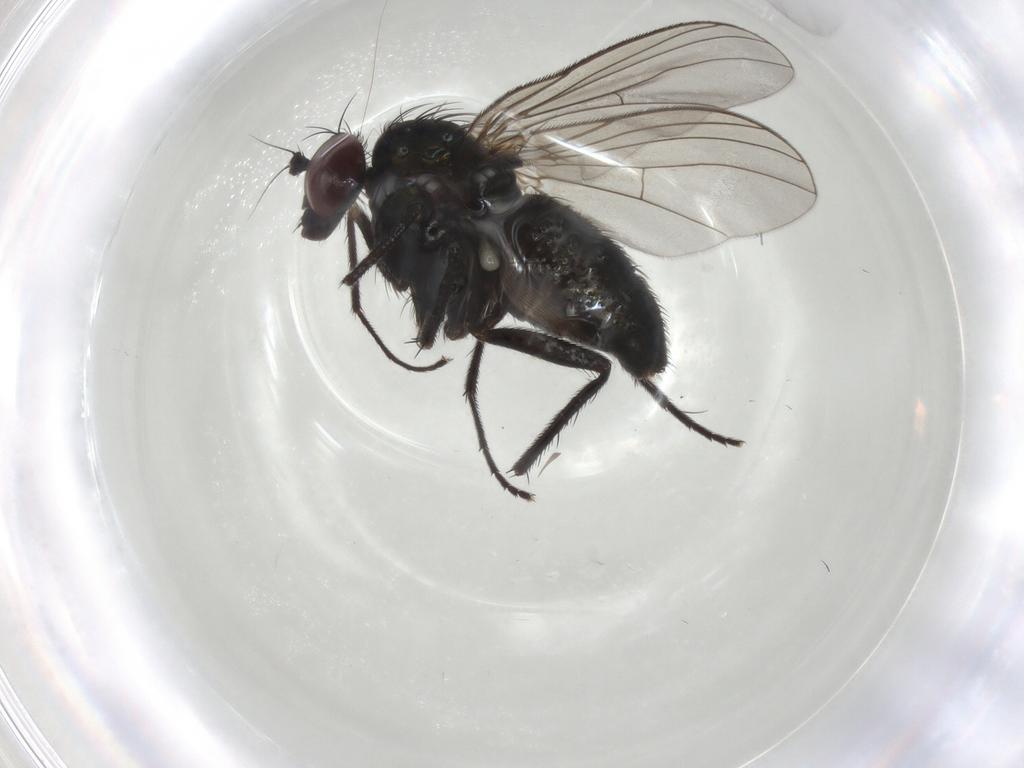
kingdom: Animalia
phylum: Arthropoda
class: Insecta
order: Diptera
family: Dolichopodidae
